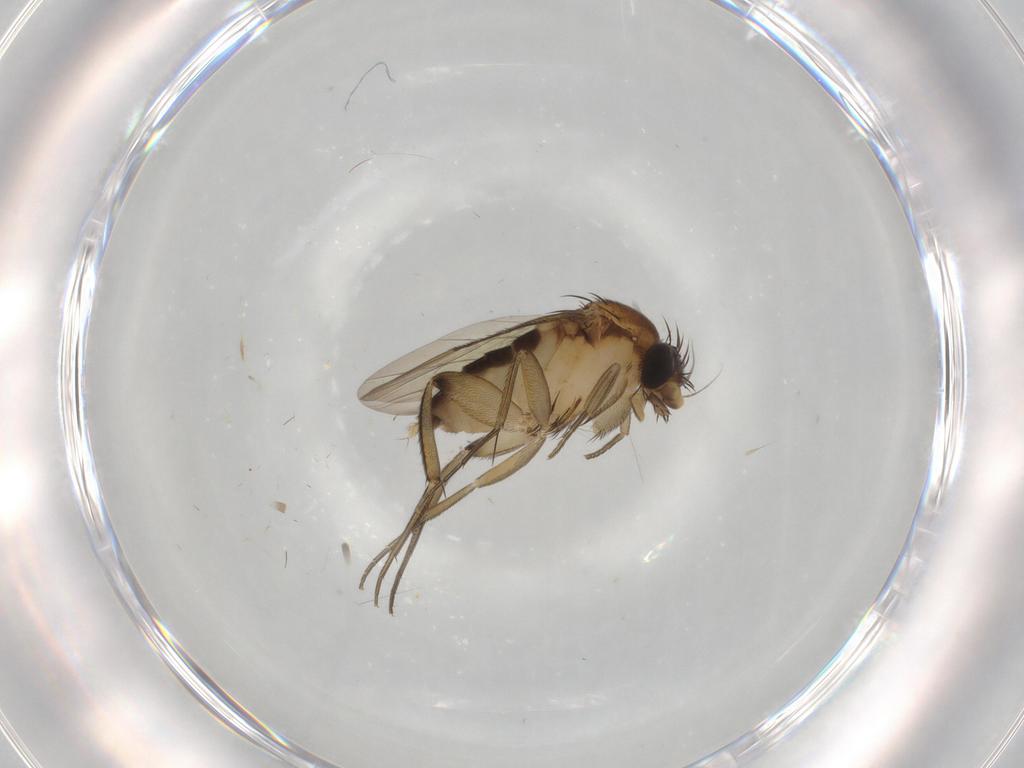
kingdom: Animalia
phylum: Arthropoda
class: Insecta
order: Diptera
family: Phoridae
